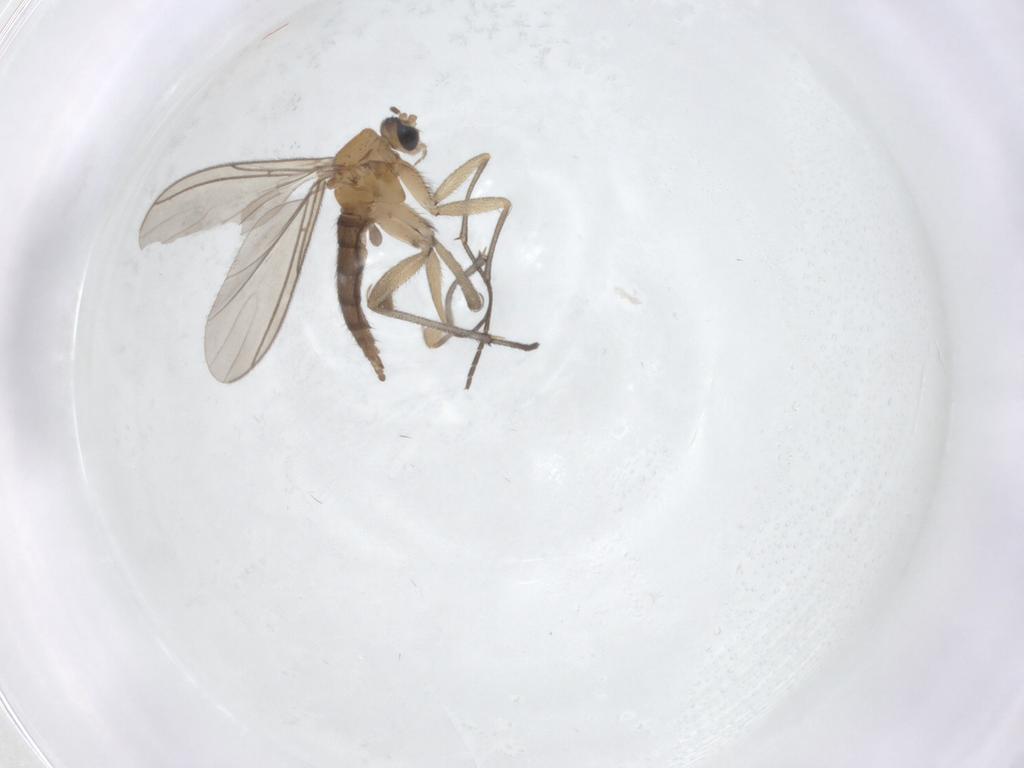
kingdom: Animalia
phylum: Arthropoda
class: Insecta
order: Diptera
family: Sciaridae
